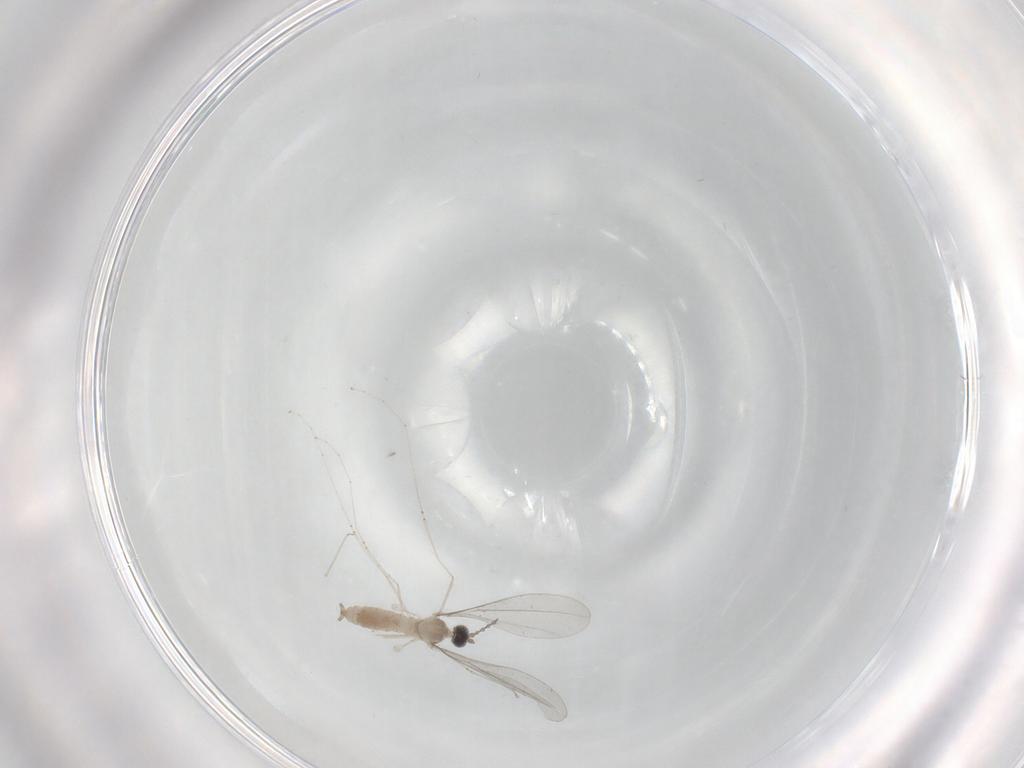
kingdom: Animalia
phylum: Arthropoda
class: Insecta
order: Diptera
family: Cecidomyiidae
